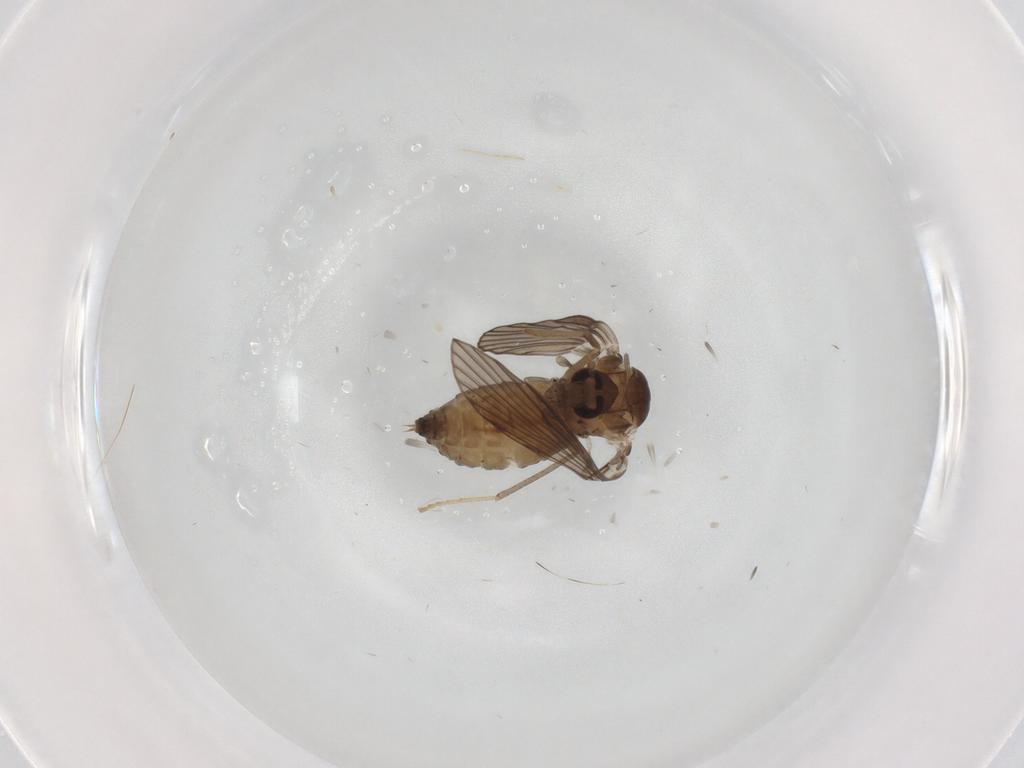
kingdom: Animalia
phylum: Arthropoda
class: Insecta
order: Diptera
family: Psychodidae
